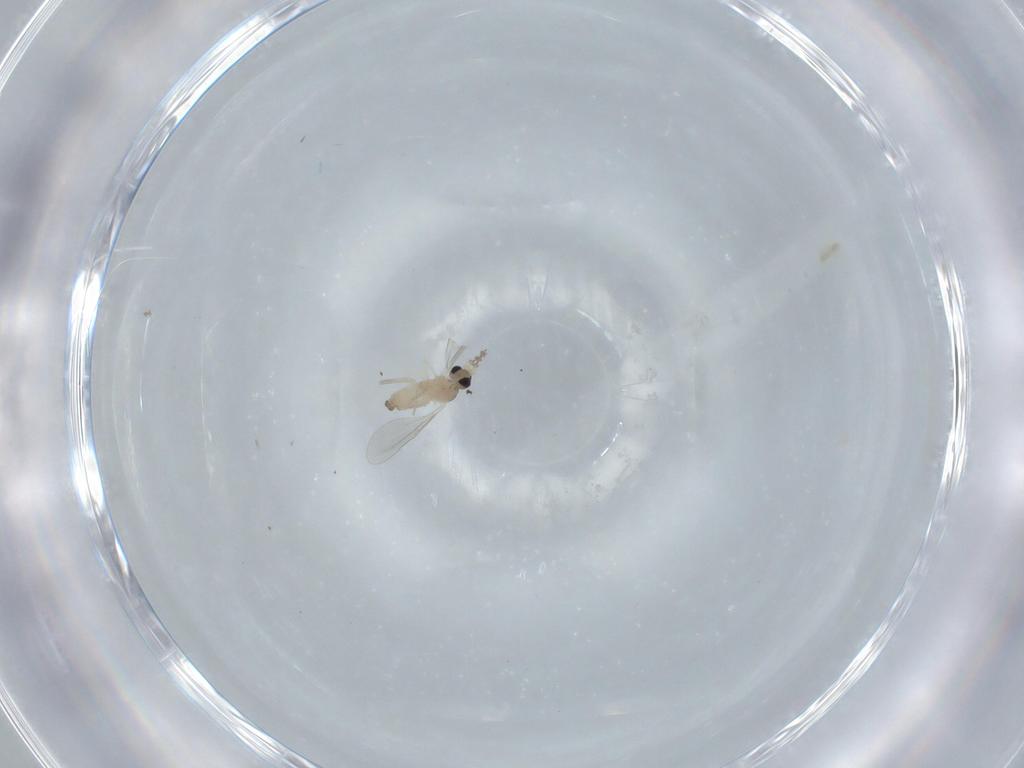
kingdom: Animalia
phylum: Arthropoda
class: Insecta
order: Diptera
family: Cecidomyiidae
